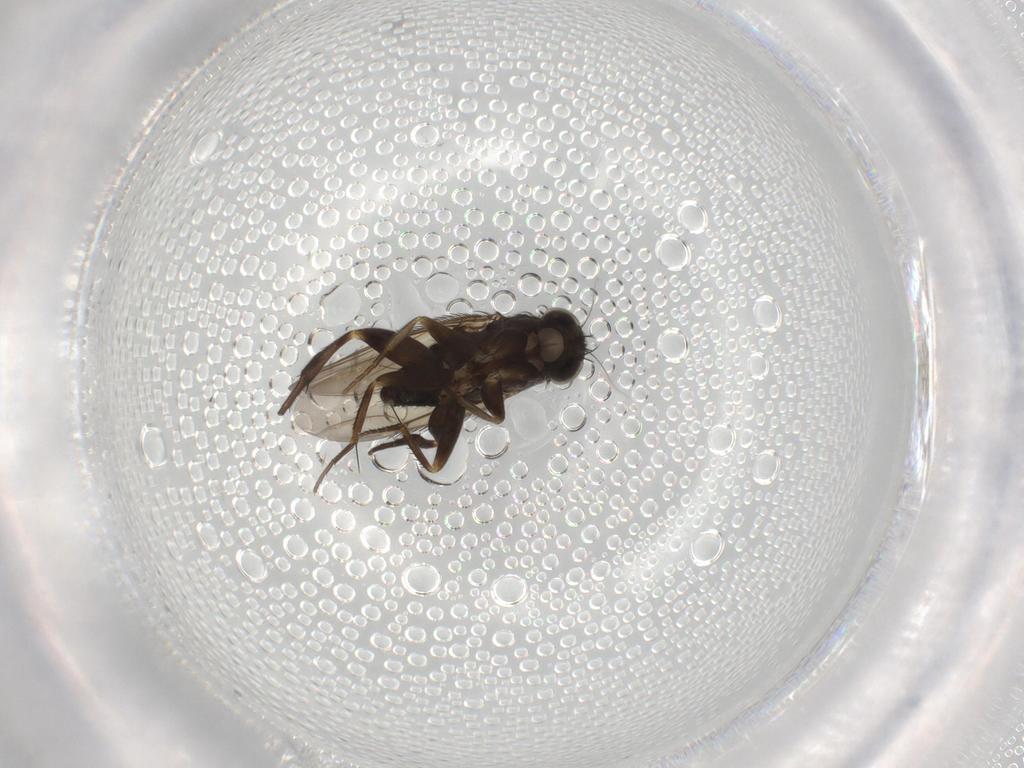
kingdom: Animalia
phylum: Arthropoda
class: Insecta
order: Diptera
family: Phoridae
